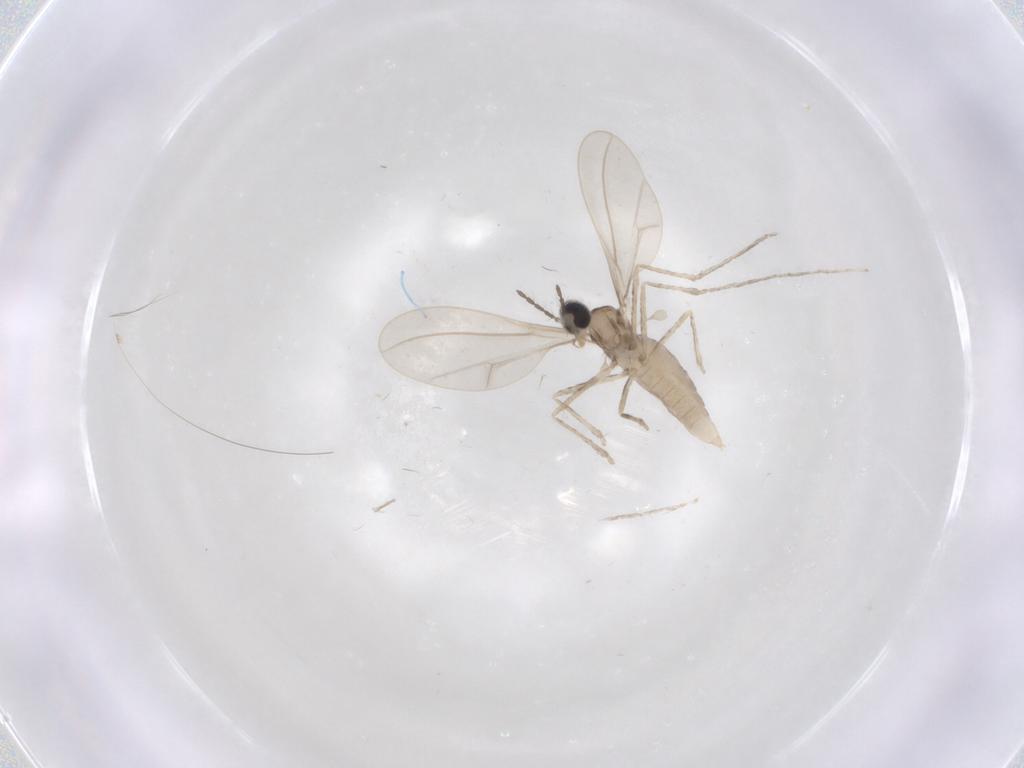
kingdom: Animalia
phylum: Arthropoda
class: Insecta
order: Diptera
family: Cecidomyiidae
